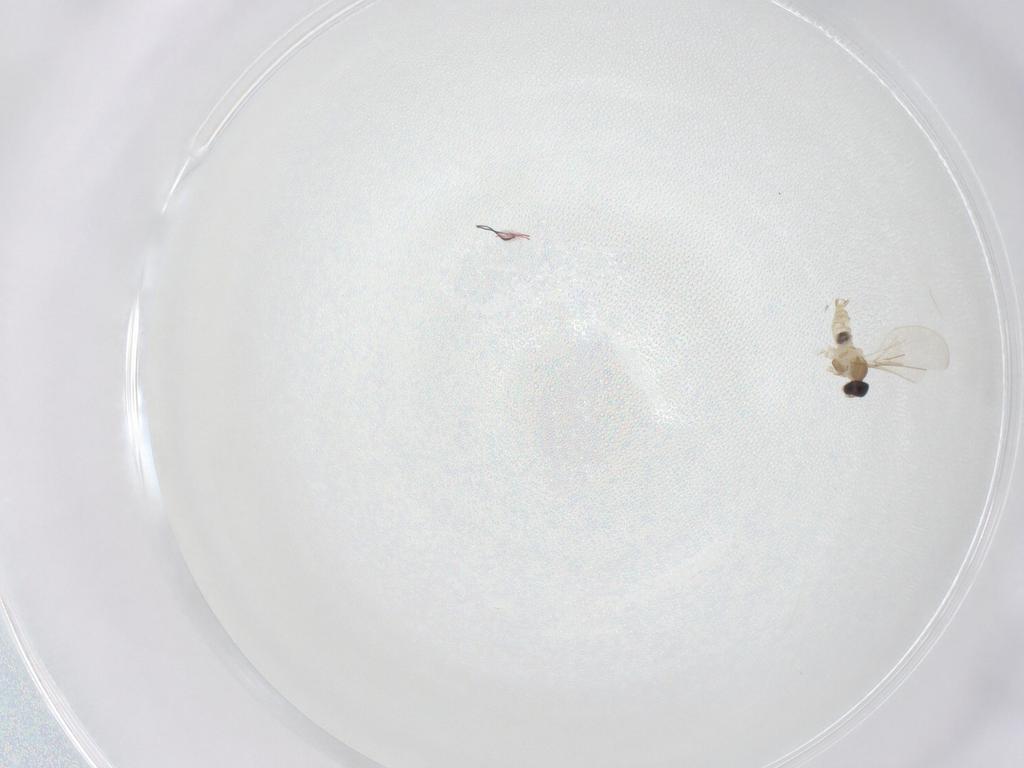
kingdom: Animalia
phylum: Arthropoda
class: Insecta
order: Diptera
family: Cecidomyiidae
